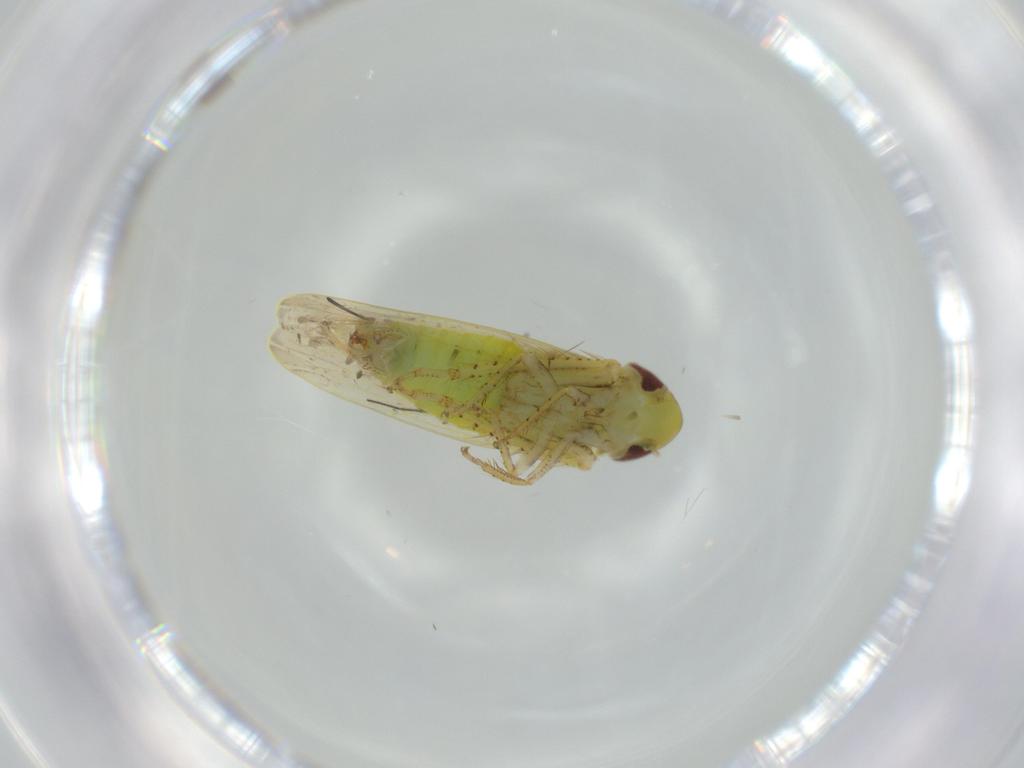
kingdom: Animalia
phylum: Arthropoda
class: Insecta
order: Hemiptera
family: Cicadellidae
